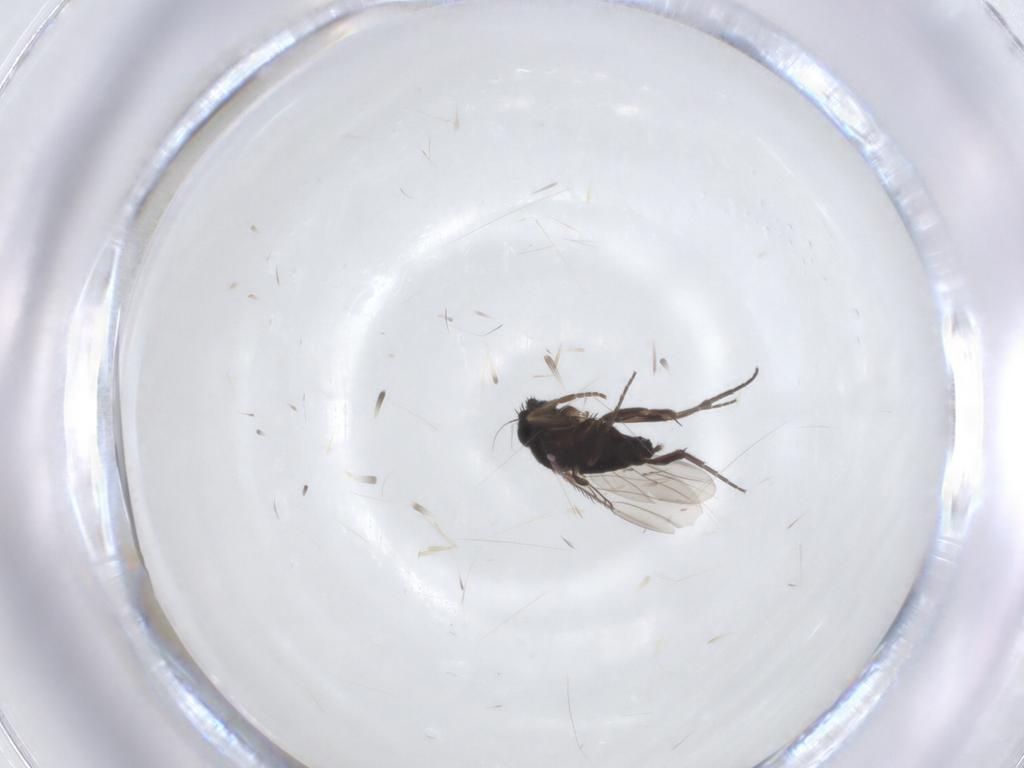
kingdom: Animalia
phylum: Arthropoda
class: Insecta
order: Diptera
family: Phoridae
